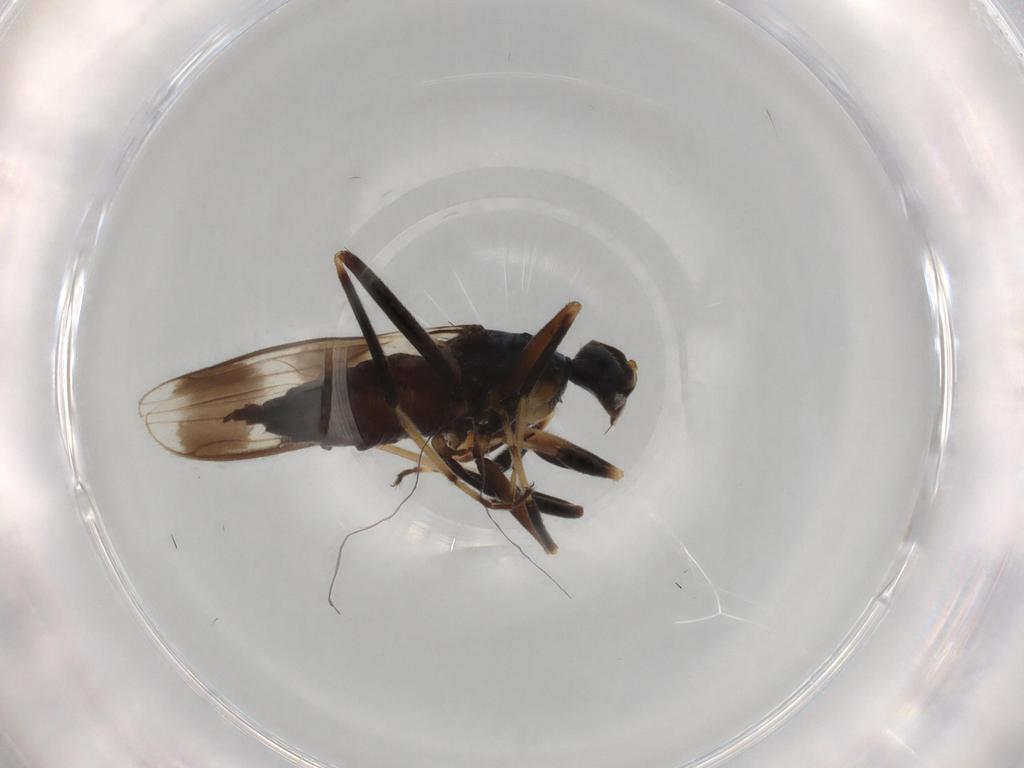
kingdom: Animalia
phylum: Arthropoda
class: Insecta
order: Diptera
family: Hybotidae
